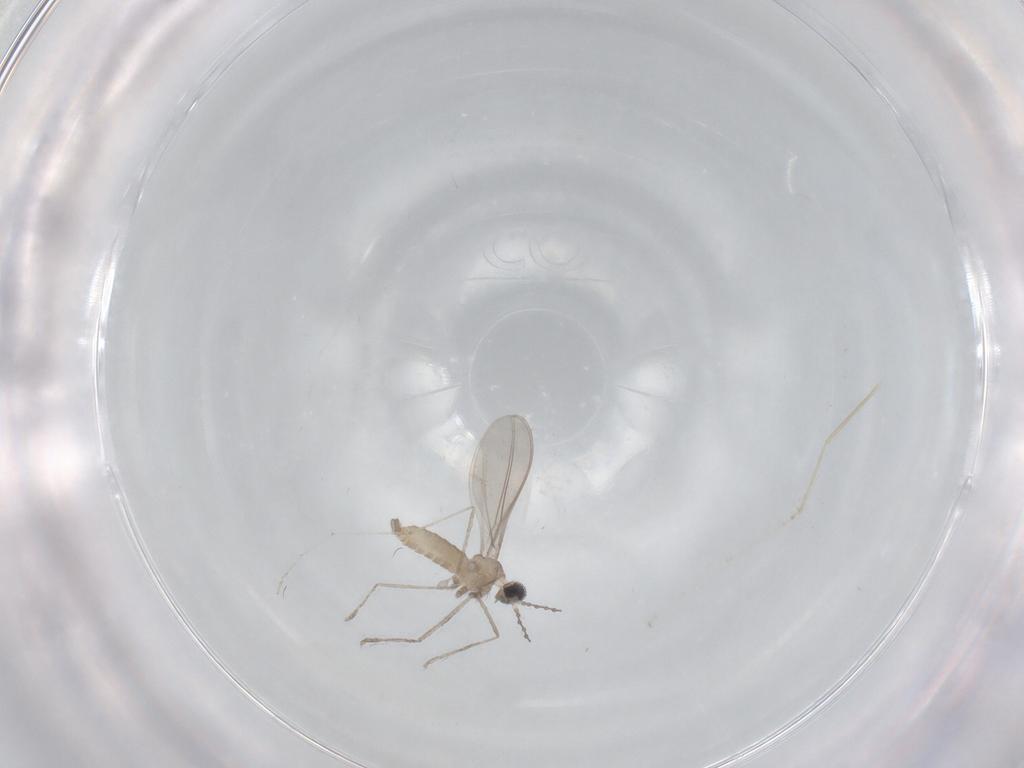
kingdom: Animalia
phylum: Arthropoda
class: Insecta
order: Diptera
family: Cecidomyiidae
